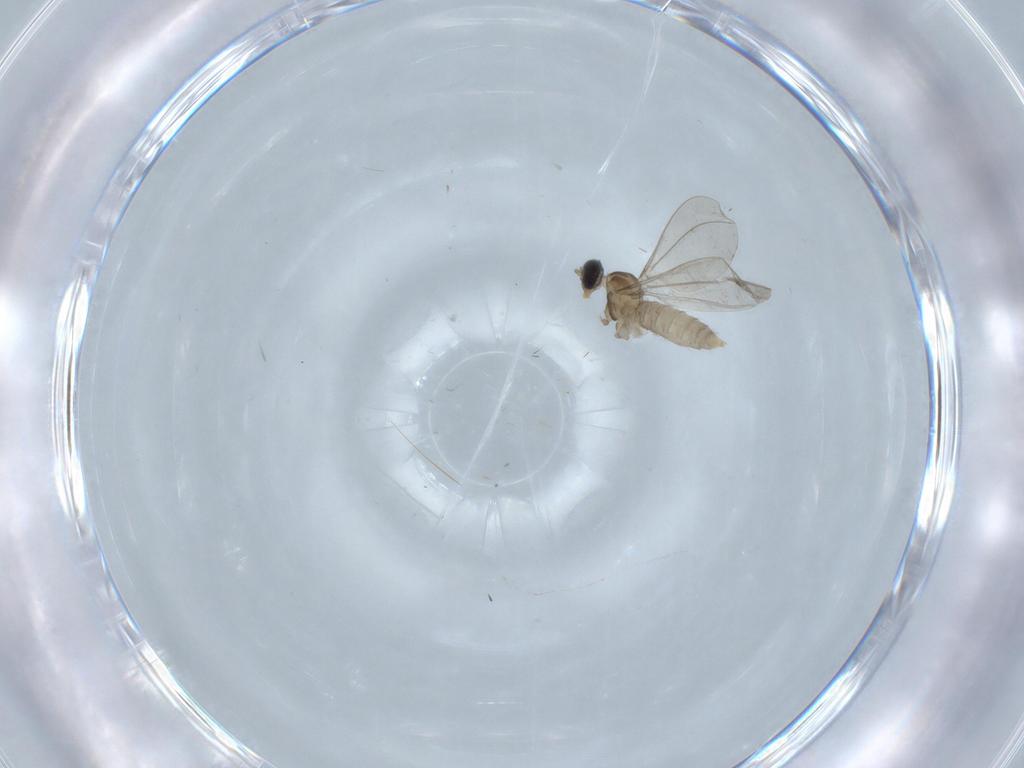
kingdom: Animalia
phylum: Arthropoda
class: Insecta
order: Diptera
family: Cecidomyiidae
